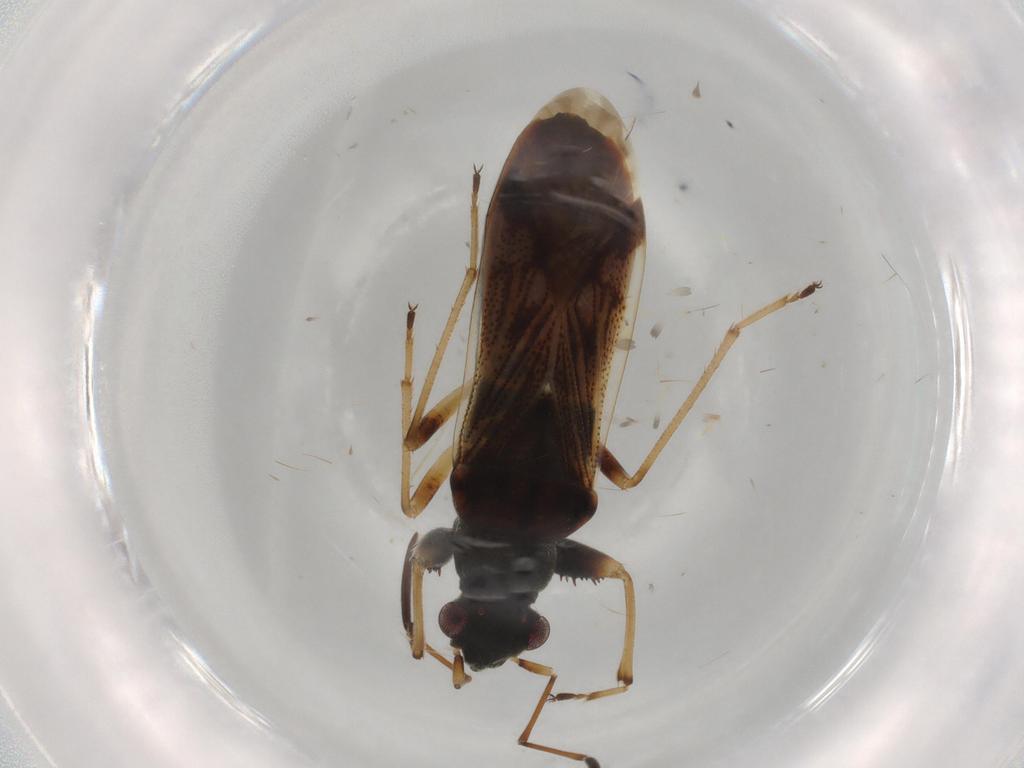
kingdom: Animalia
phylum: Arthropoda
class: Insecta
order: Hemiptera
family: Rhyparochromidae
